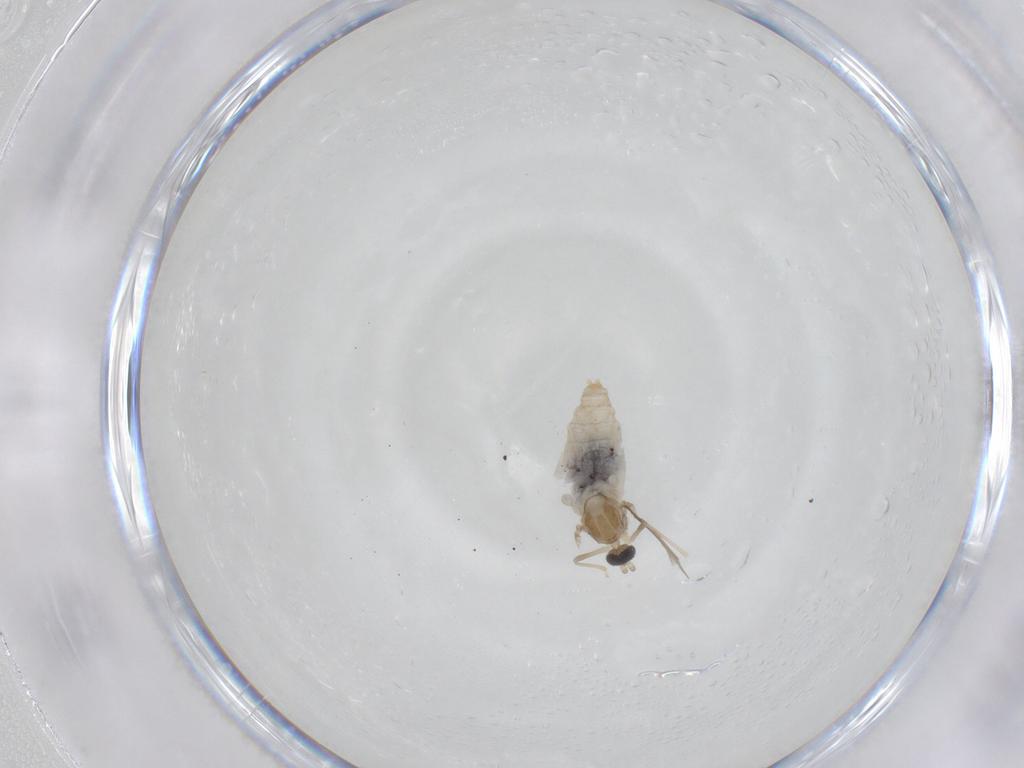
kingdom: Animalia
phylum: Arthropoda
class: Insecta
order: Diptera
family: Cecidomyiidae
